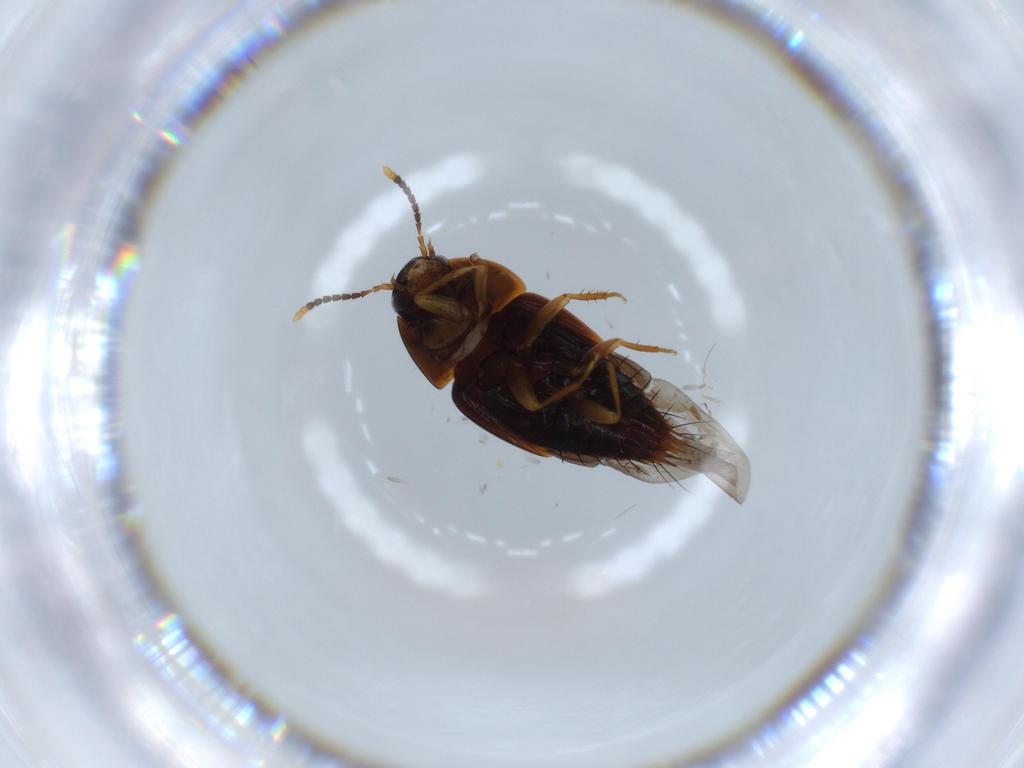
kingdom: Animalia
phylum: Arthropoda
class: Insecta
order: Coleoptera
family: Staphylinidae
